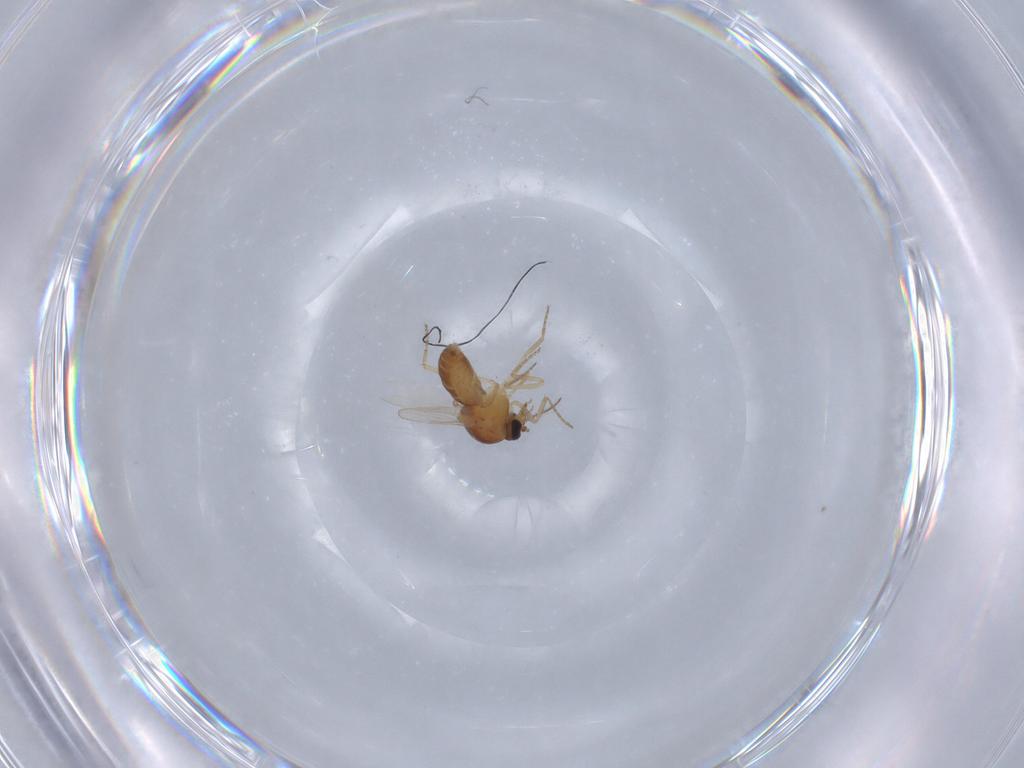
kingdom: Animalia
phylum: Arthropoda
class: Insecta
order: Diptera
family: Ceratopogonidae
